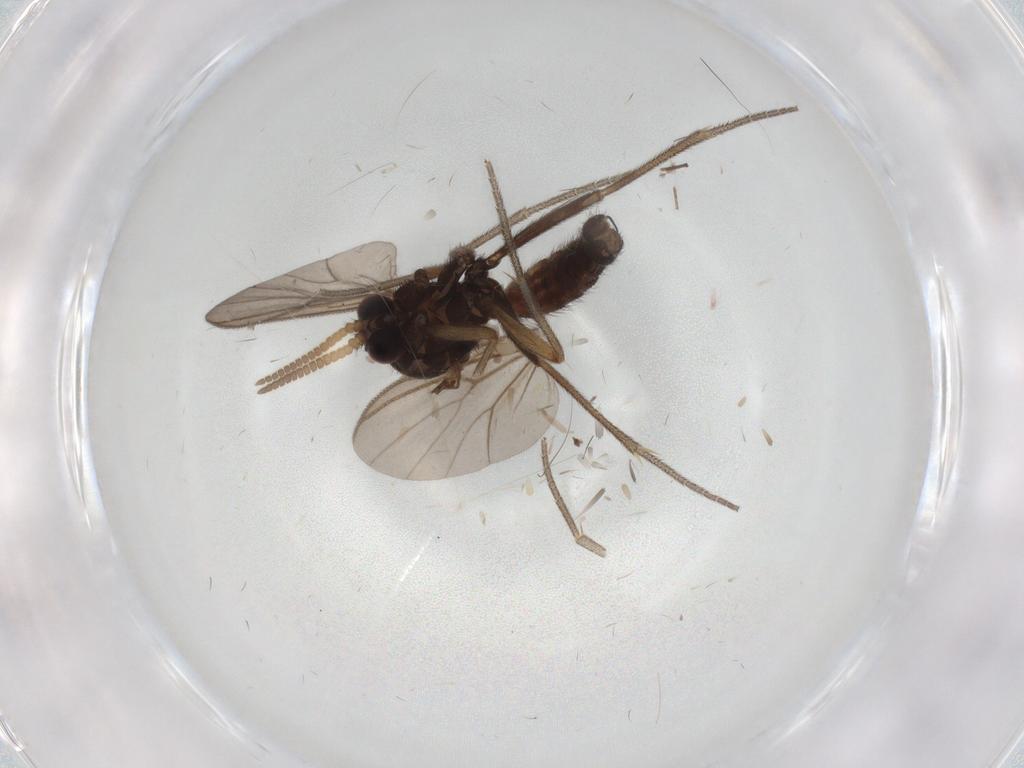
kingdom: Animalia
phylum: Arthropoda
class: Insecta
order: Diptera
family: Mycetophilidae
